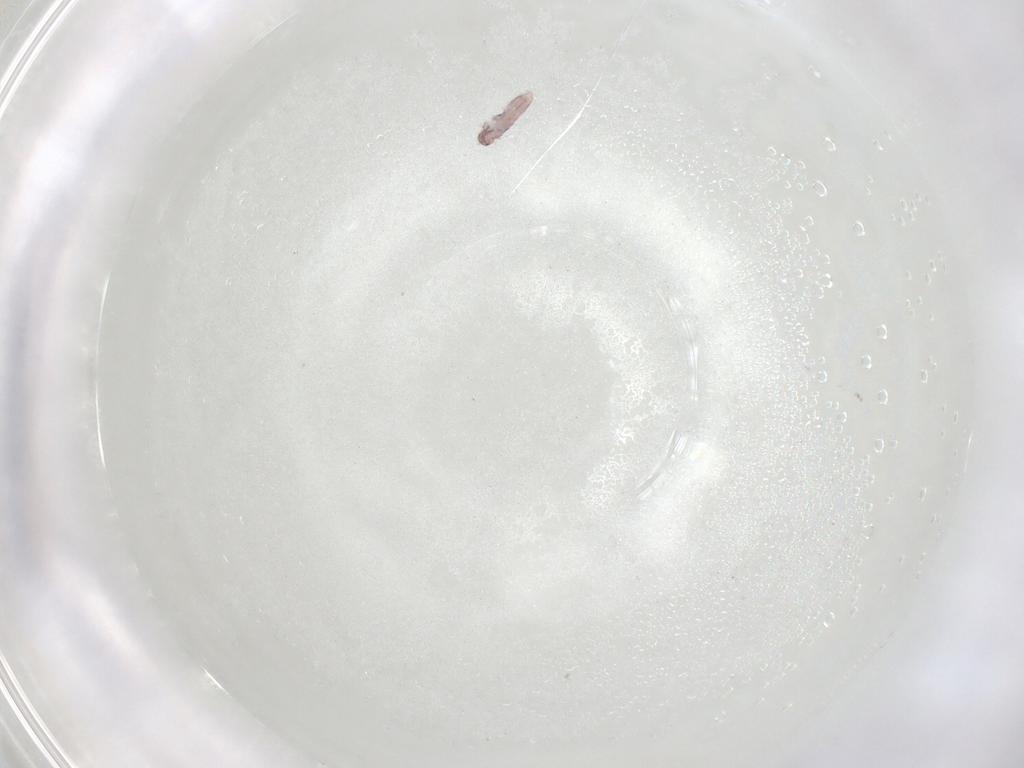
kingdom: Animalia
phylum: Arthropoda
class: Collembola
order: Entomobryomorpha
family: Entomobryidae
